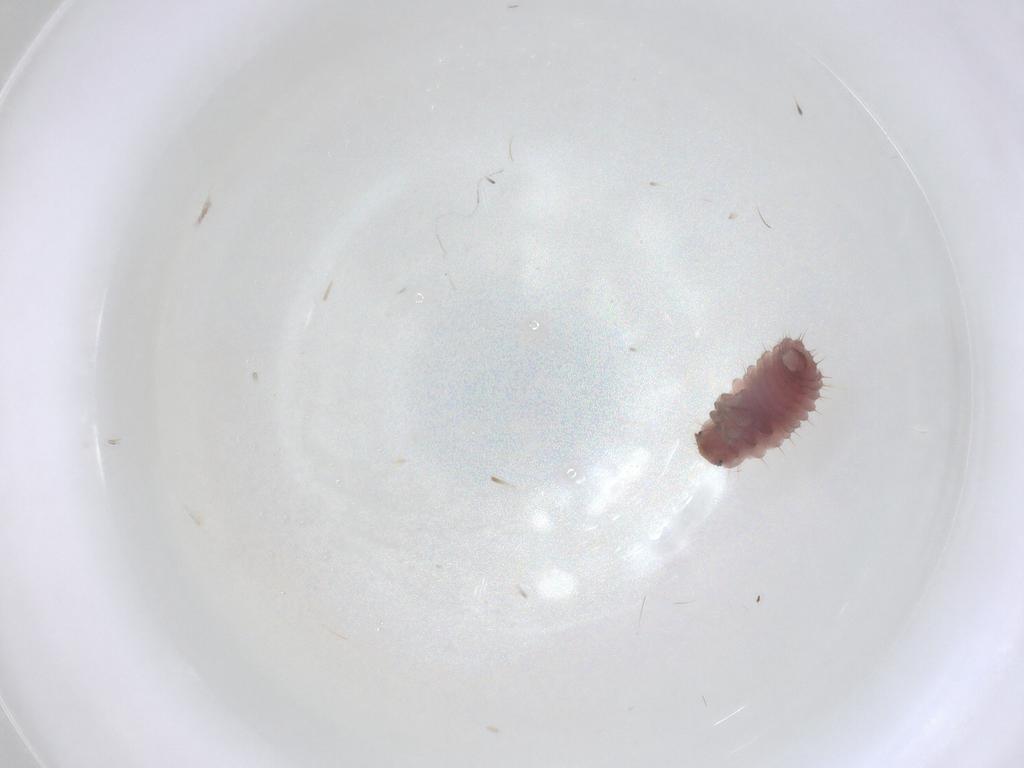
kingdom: Animalia
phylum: Arthropoda
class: Insecta
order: Coleoptera
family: Coccinellidae
